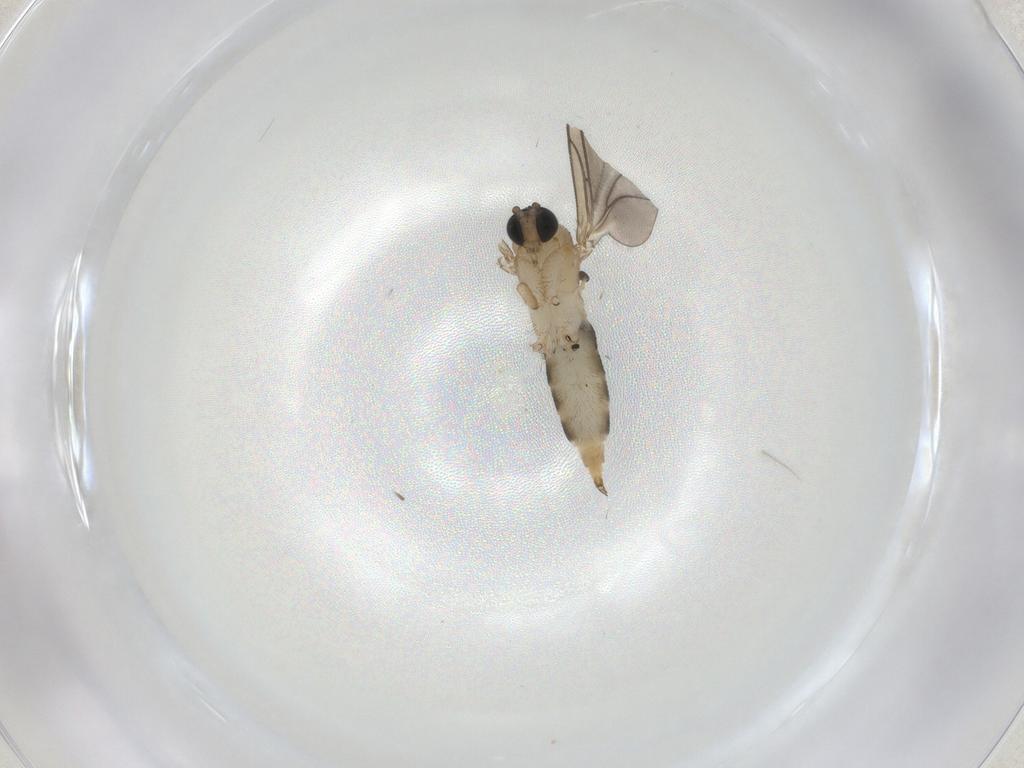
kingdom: Animalia
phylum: Arthropoda
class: Insecta
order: Diptera
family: Sciaridae
